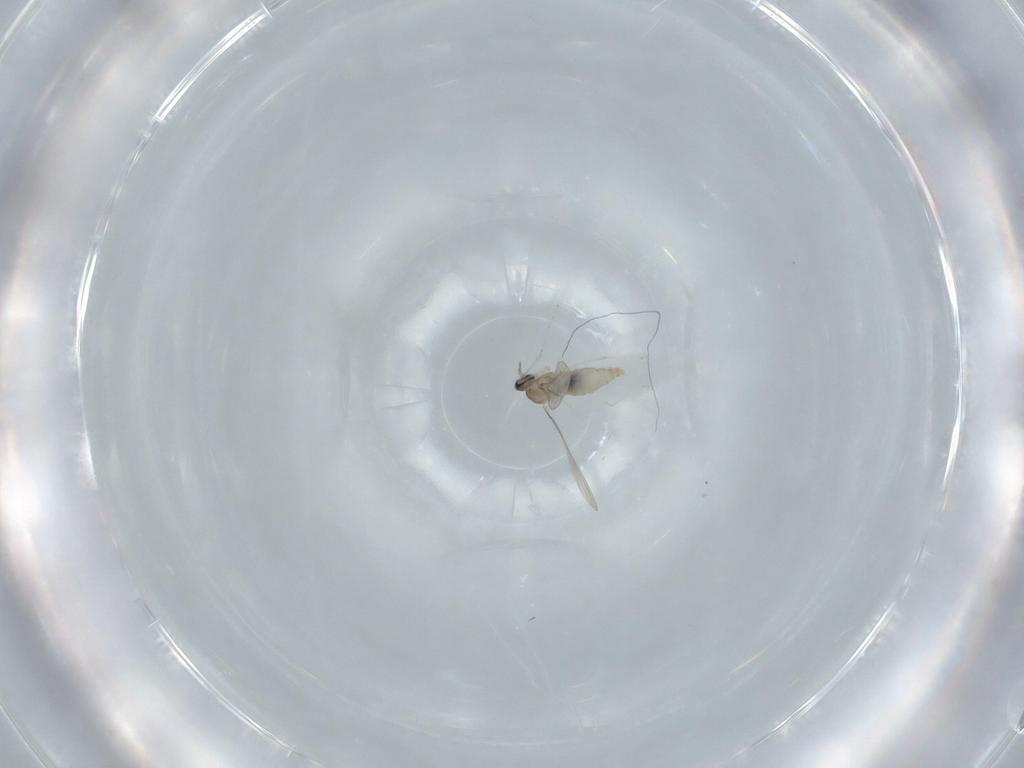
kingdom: Animalia
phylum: Arthropoda
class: Insecta
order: Diptera
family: Cecidomyiidae
